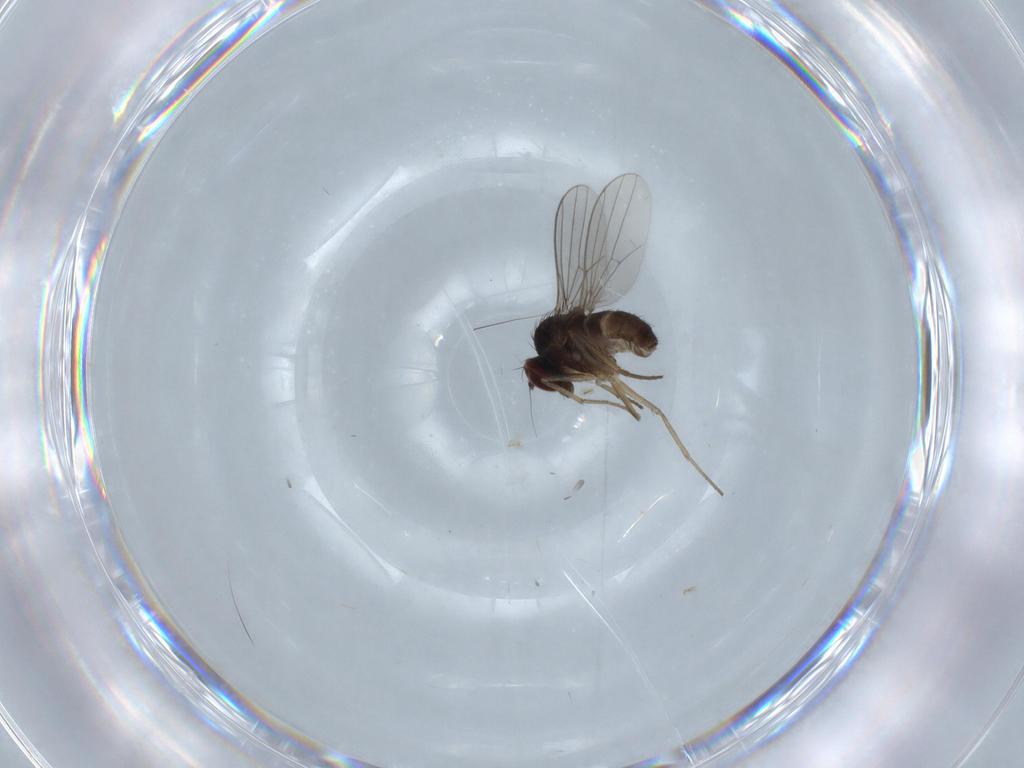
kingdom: Animalia
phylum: Arthropoda
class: Insecta
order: Diptera
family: Dolichopodidae
